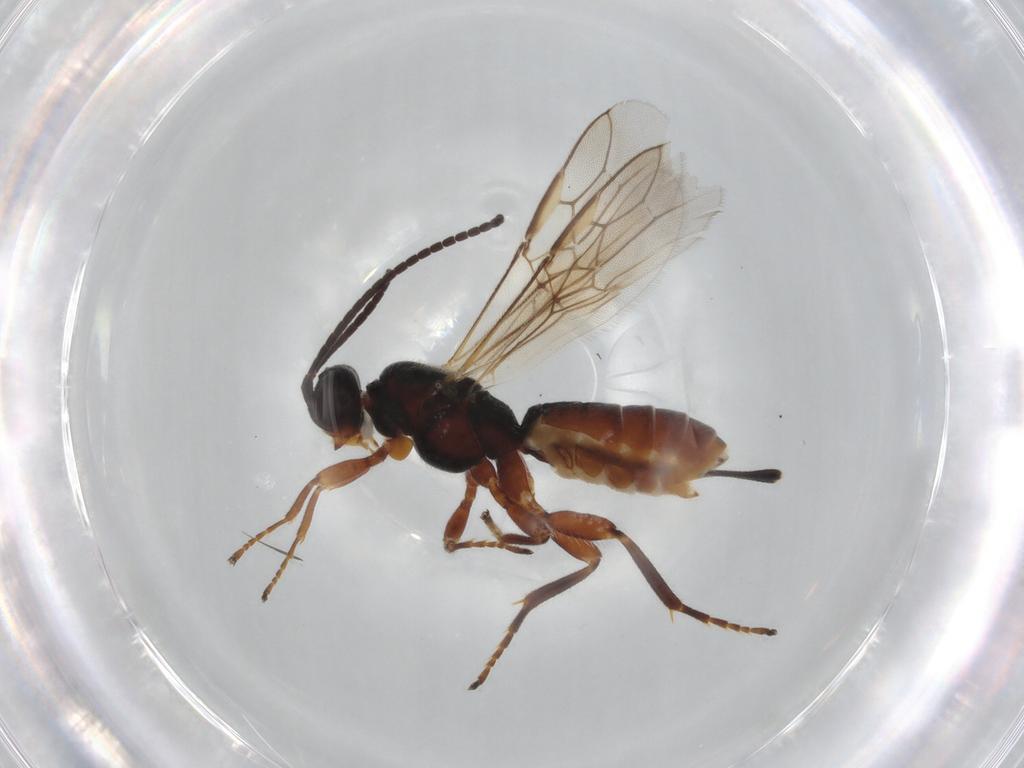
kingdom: Animalia
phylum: Arthropoda
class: Insecta
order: Hymenoptera
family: Braconidae
